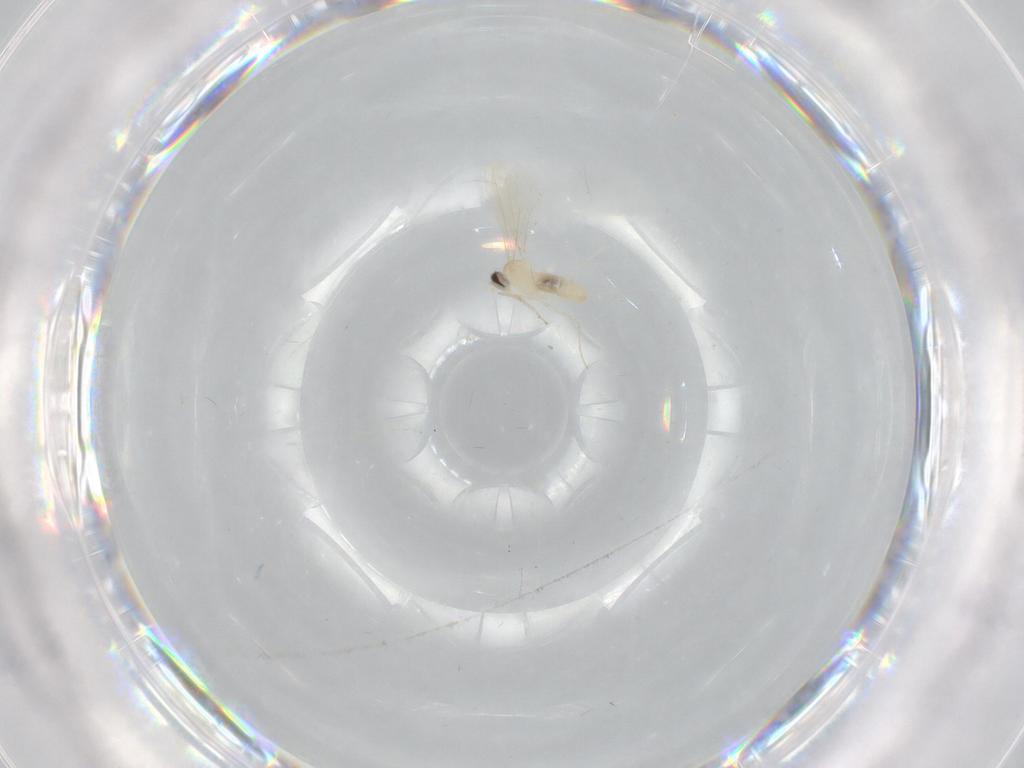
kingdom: Animalia
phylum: Arthropoda
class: Insecta
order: Diptera
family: Cecidomyiidae
